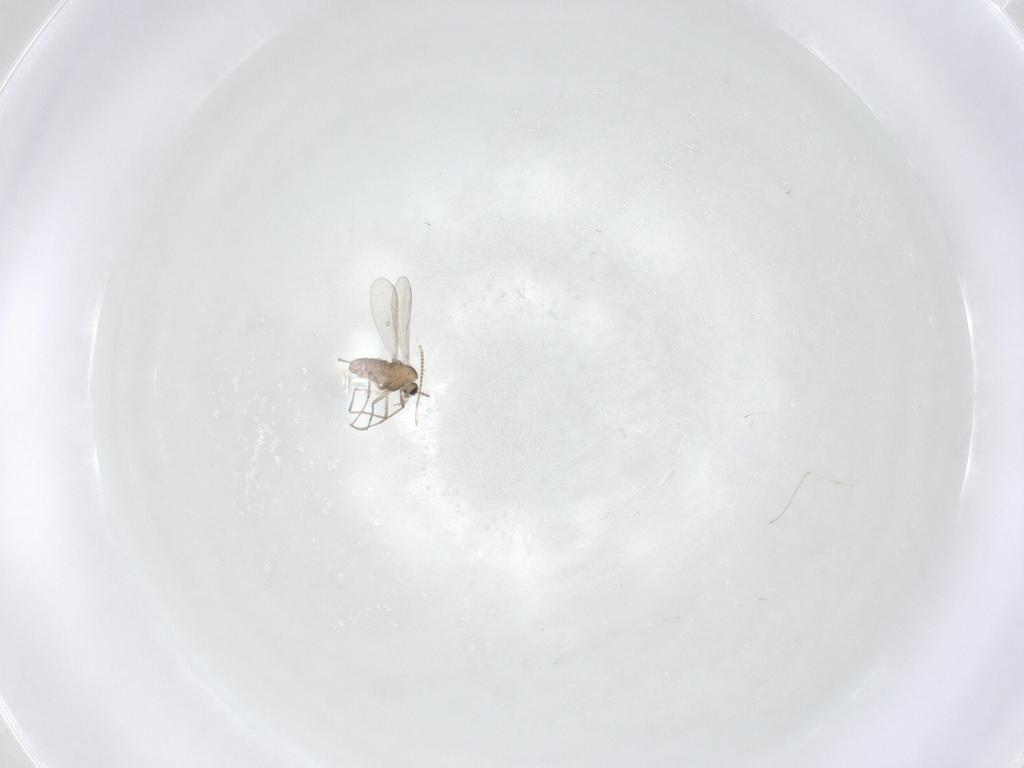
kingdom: Animalia
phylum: Arthropoda
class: Insecta
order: Diptera
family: Chironomidae
